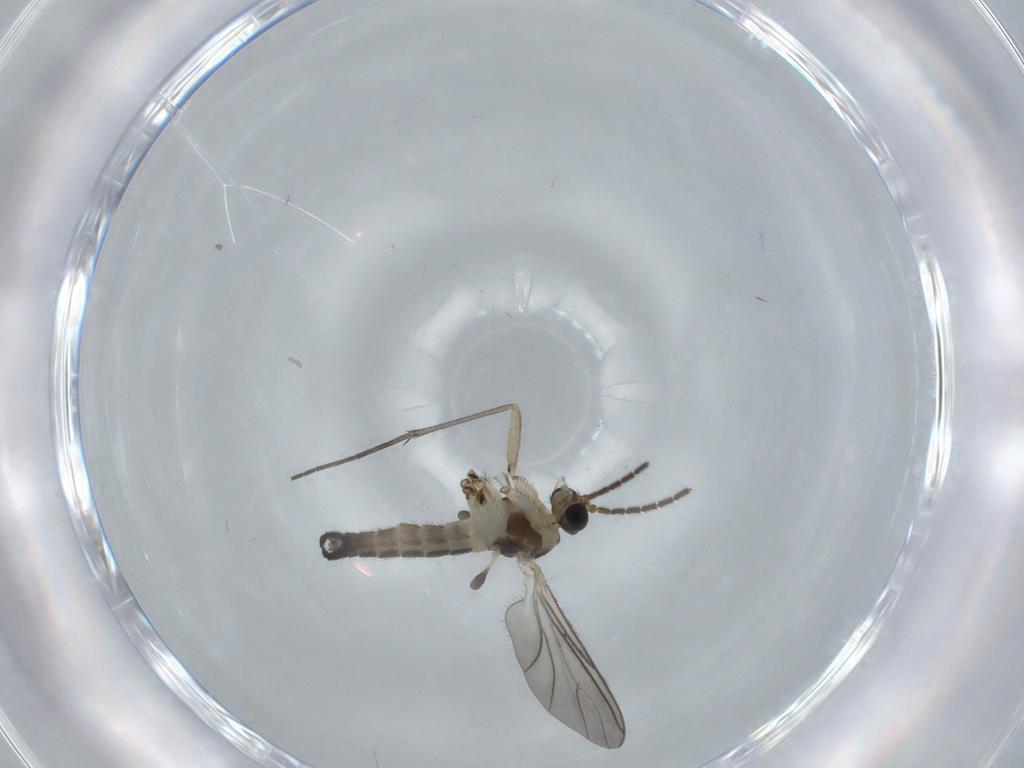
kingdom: Animalia
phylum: Arthropoda
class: Insecta
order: Diptera
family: Sciaridae
